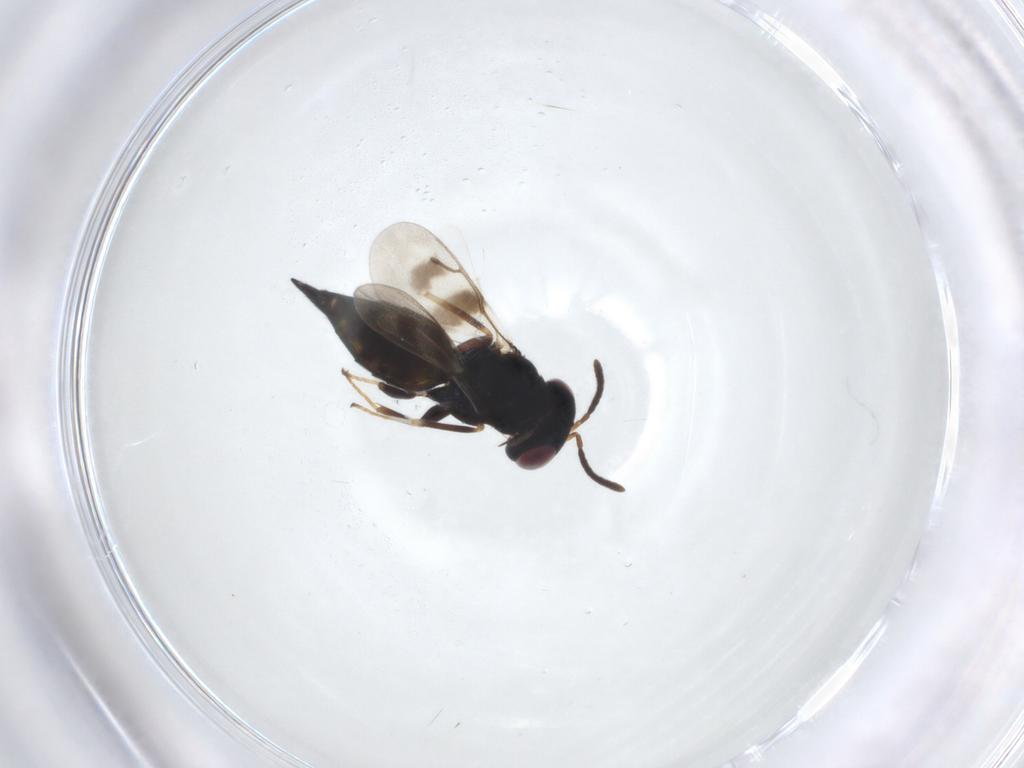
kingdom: Animalia
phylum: Arthropoda
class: Insecta
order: Hymenoptera
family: Pteromalidae
